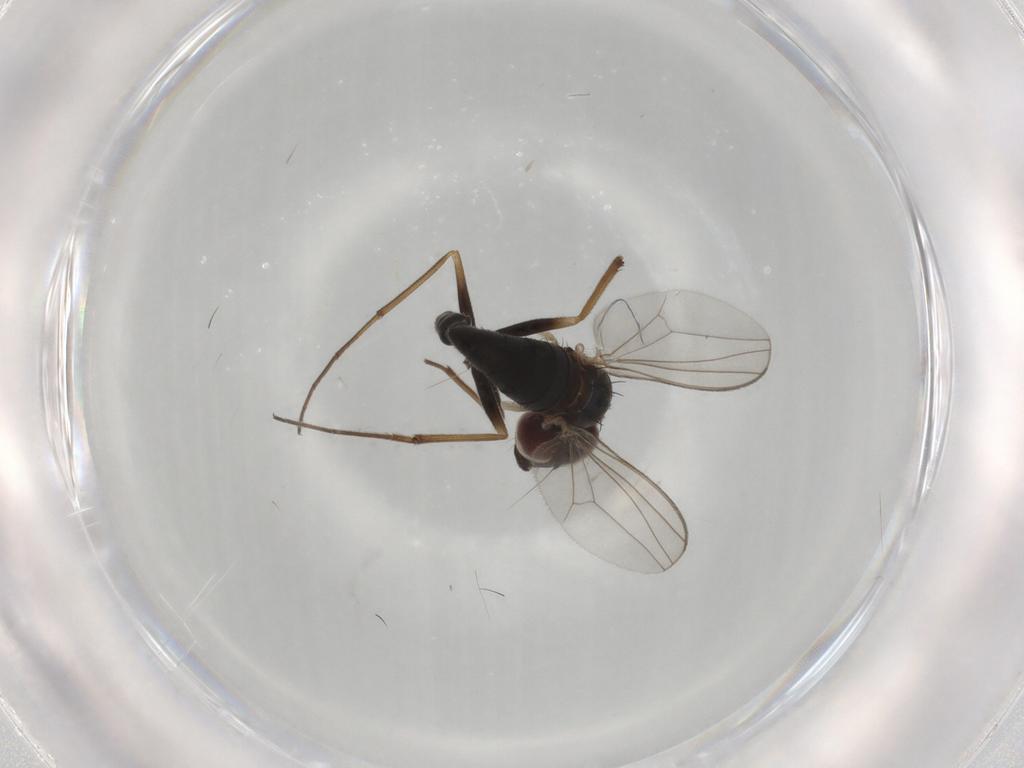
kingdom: Animalia
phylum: Arthropoda
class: Insecta
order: Diptera
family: Dolichopodidae
